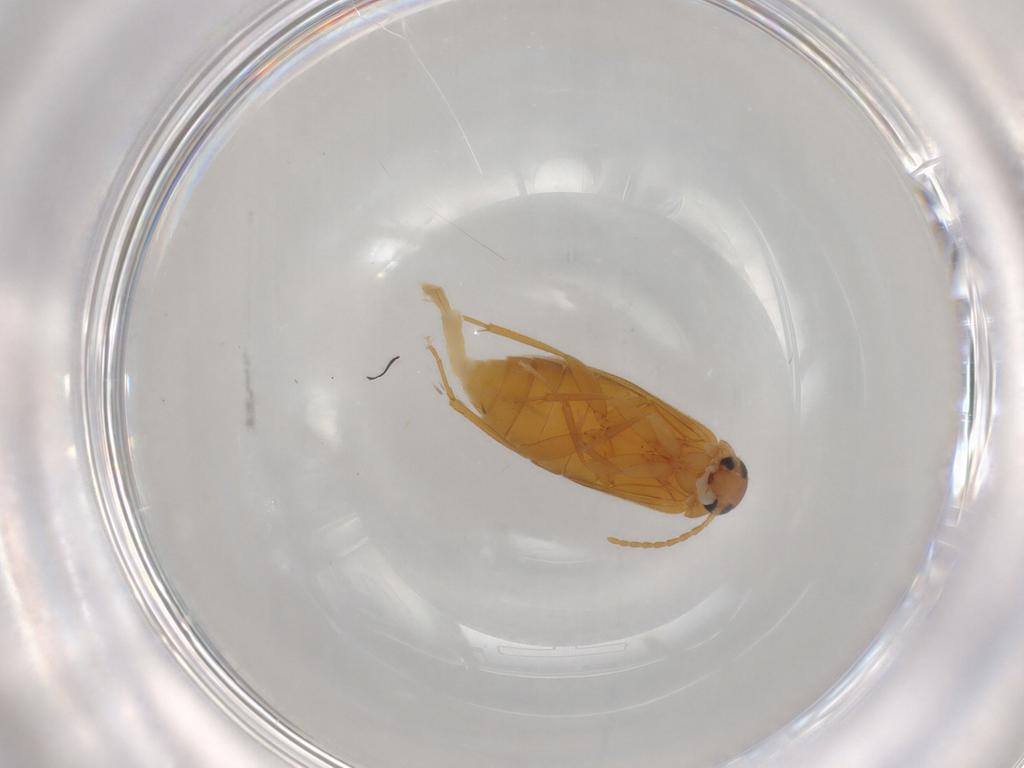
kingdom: Animalia
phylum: Arthropoda
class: Insecta
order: Coleoptera
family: Scraptiidae
